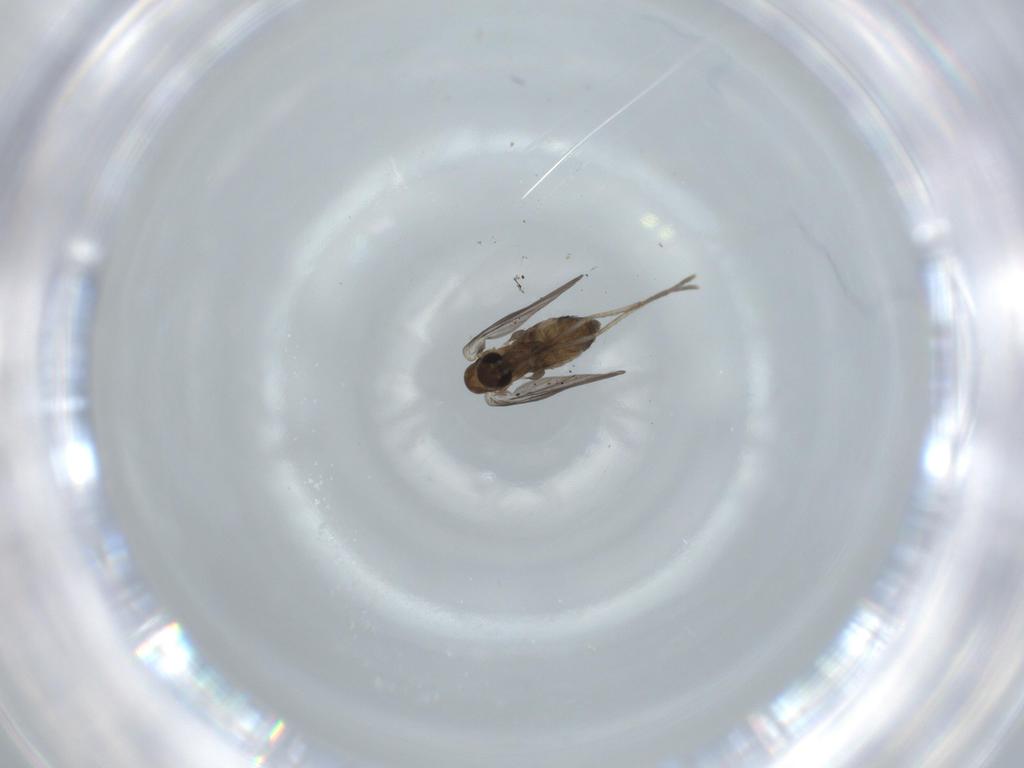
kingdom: Animalia
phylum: Arthropoda
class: Insecta
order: Diptera
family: Psychodidae
